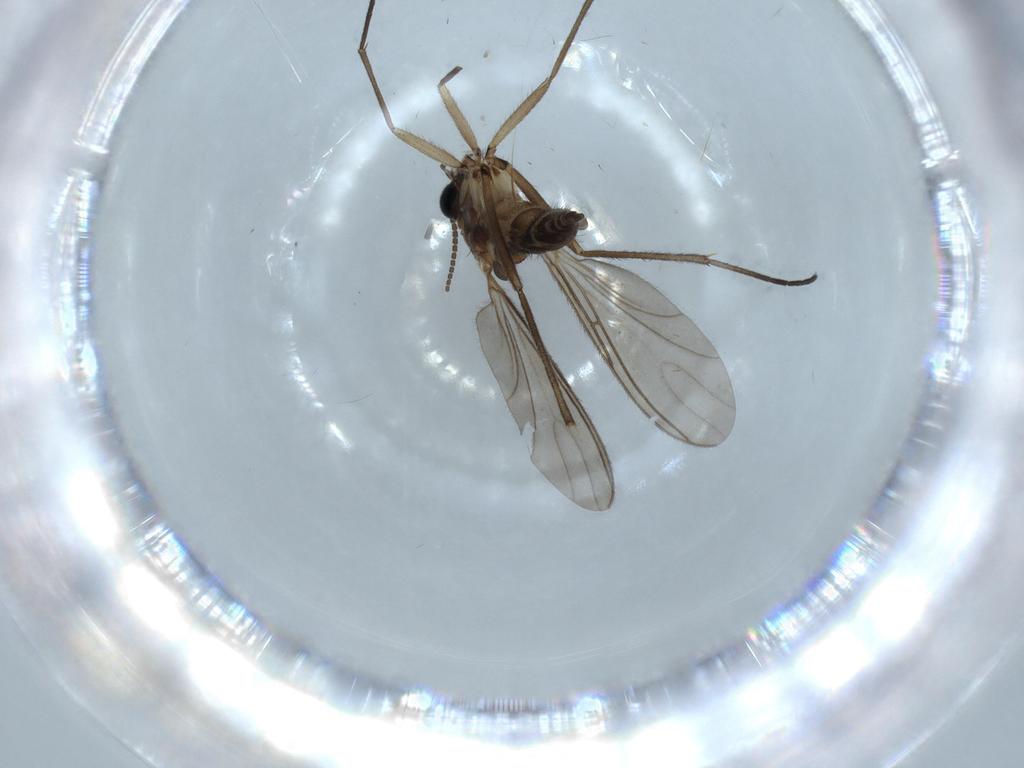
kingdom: Animalia
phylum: Arthropoda
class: Insecta
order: Diptera
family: Sciaridae
